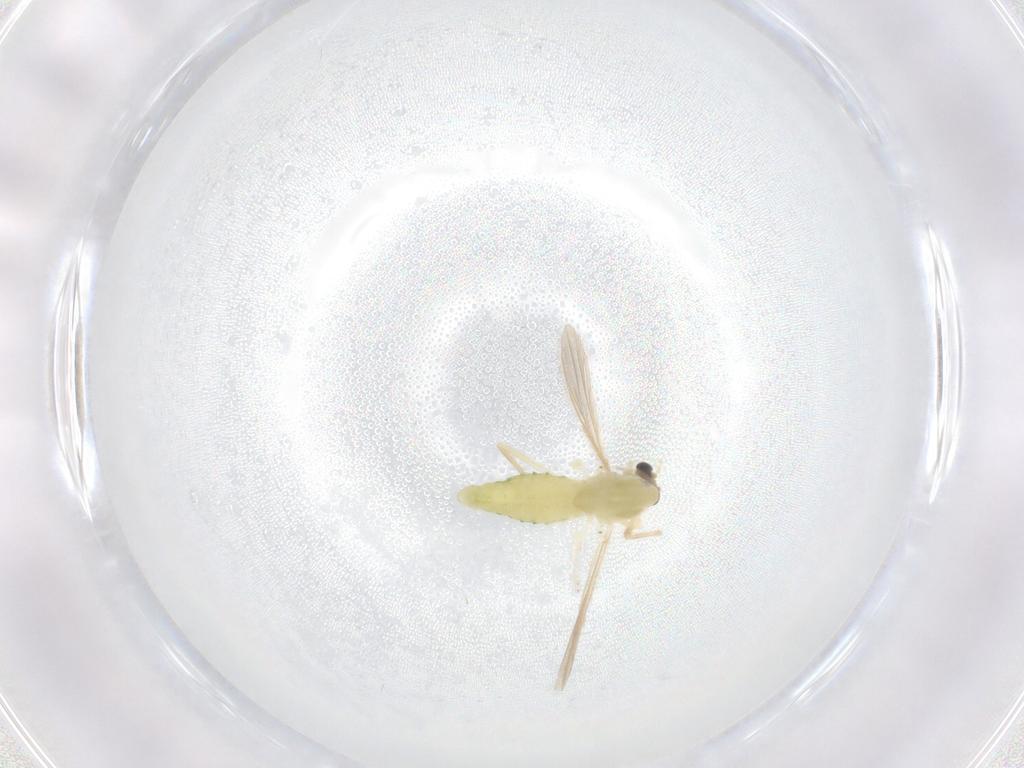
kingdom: Animalia
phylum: Arthropoda
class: Insecta
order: Diptera
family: Chironomidae
